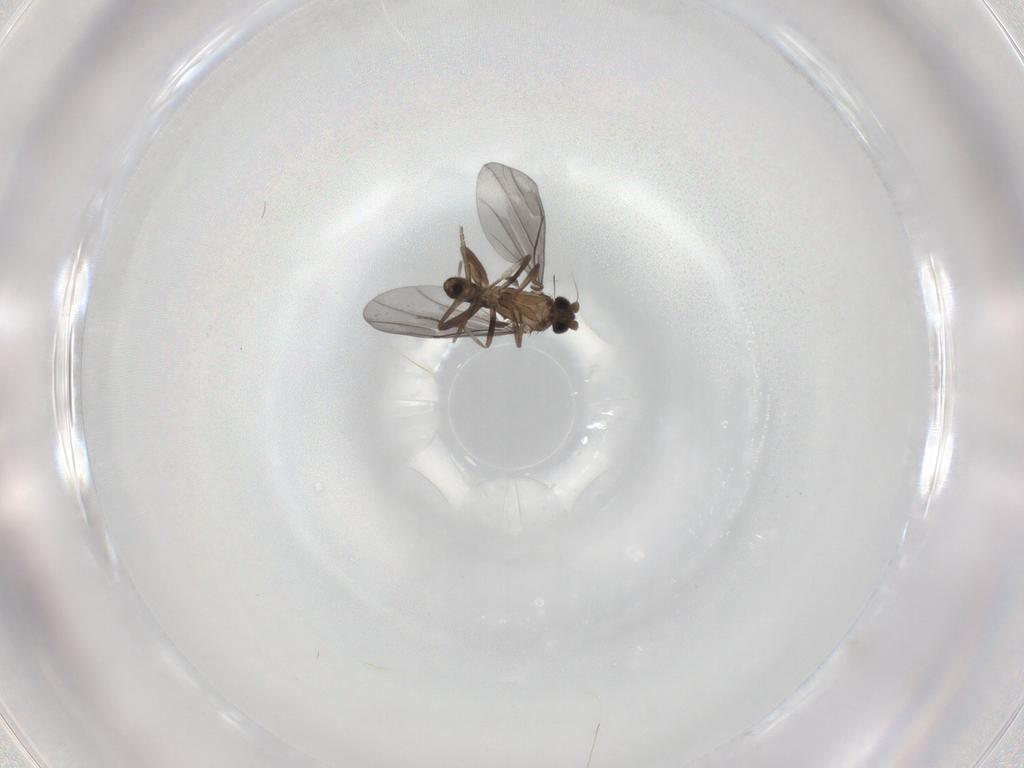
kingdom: Animalia
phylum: Arthropoda
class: Insecta
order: Diptera
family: Phoridae
